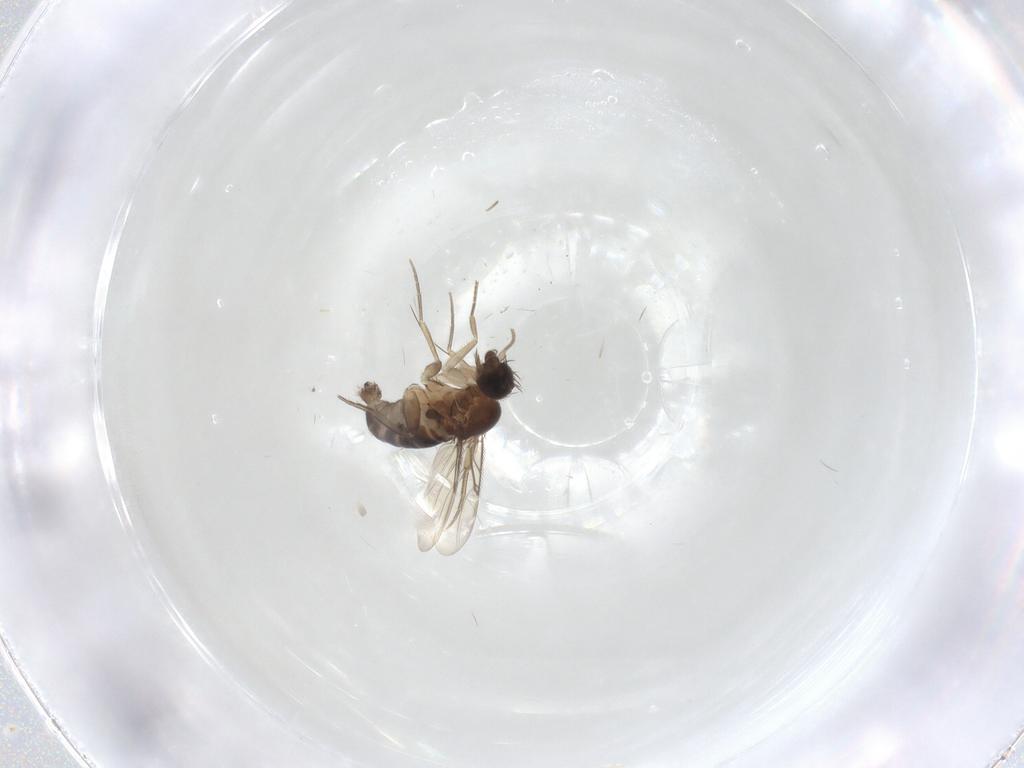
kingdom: Animalia
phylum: Arthropoda
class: Insecta
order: Diptera
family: Phoridae
